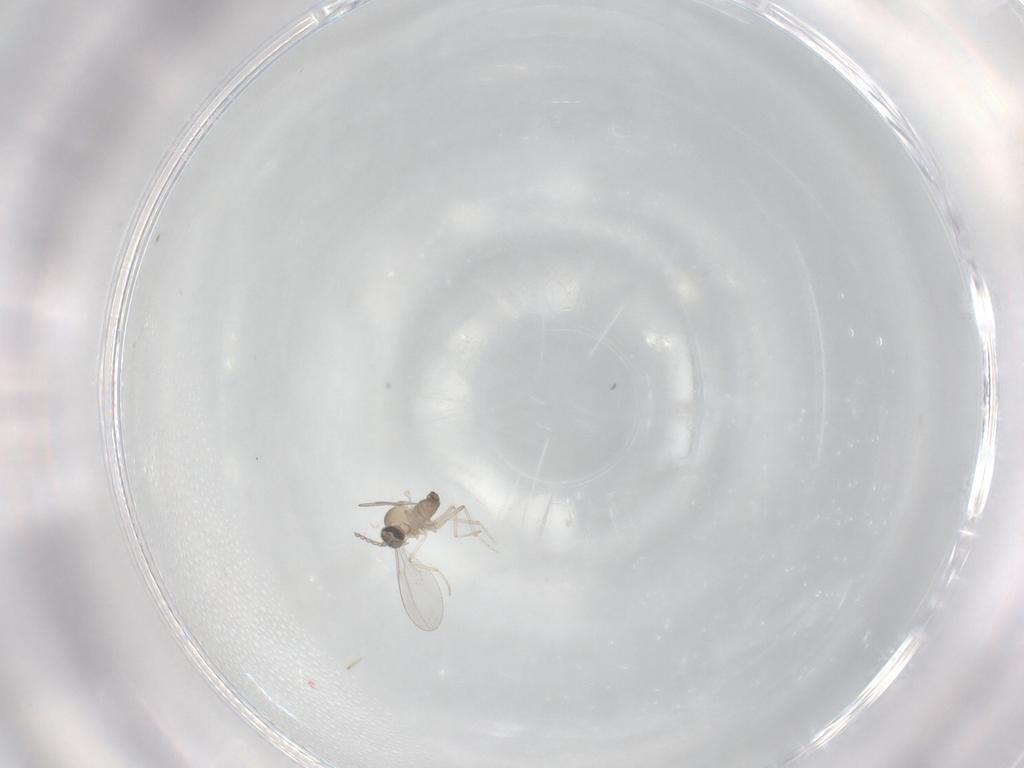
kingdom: Animalia
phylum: Arthropoda
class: Insecta
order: Diptera
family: Cecidomyiidae
